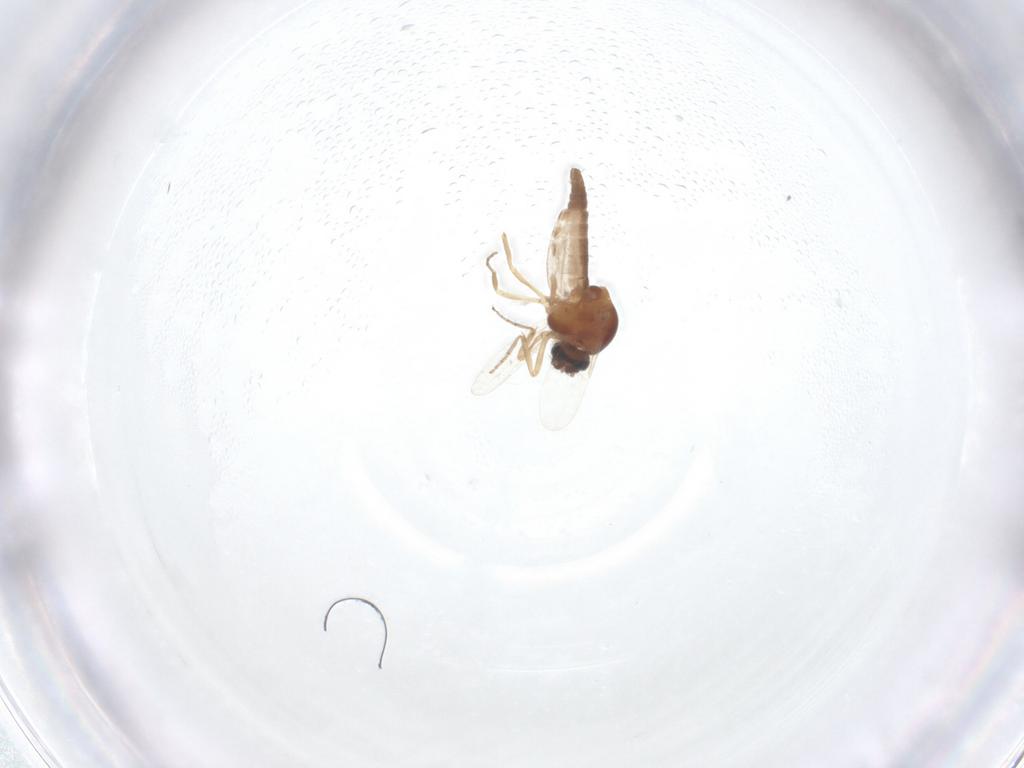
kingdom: Animalia
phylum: Arthropoda
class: Insecta
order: Diptera
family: Ceratopogonidae
